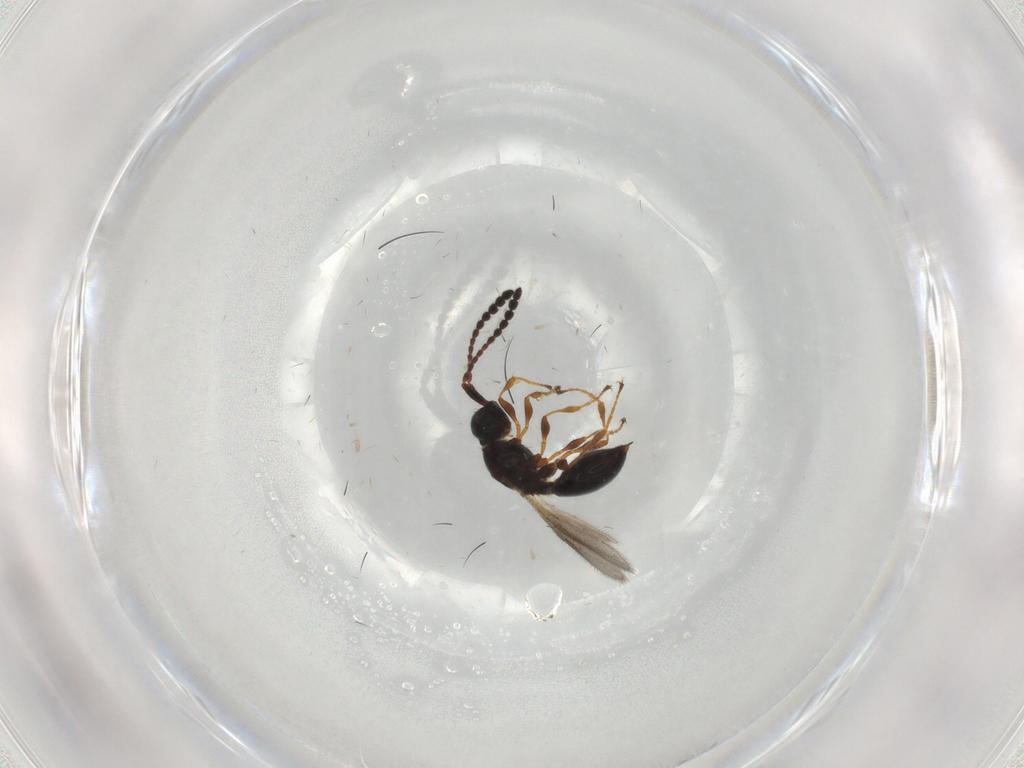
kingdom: Animalia
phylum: Arthropoda
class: Insecta
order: Hymenoptera
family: Diapriidae
